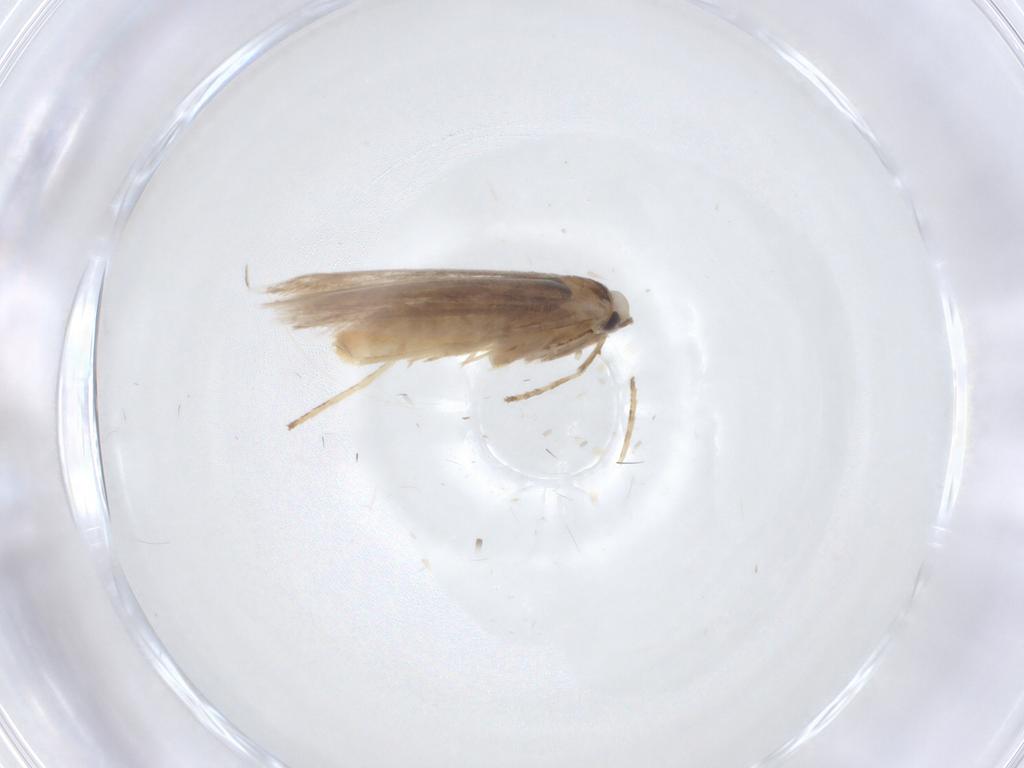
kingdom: Animalia
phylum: Arthropoda
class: Insecta
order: Lepidoptera
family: Gracillariidae
